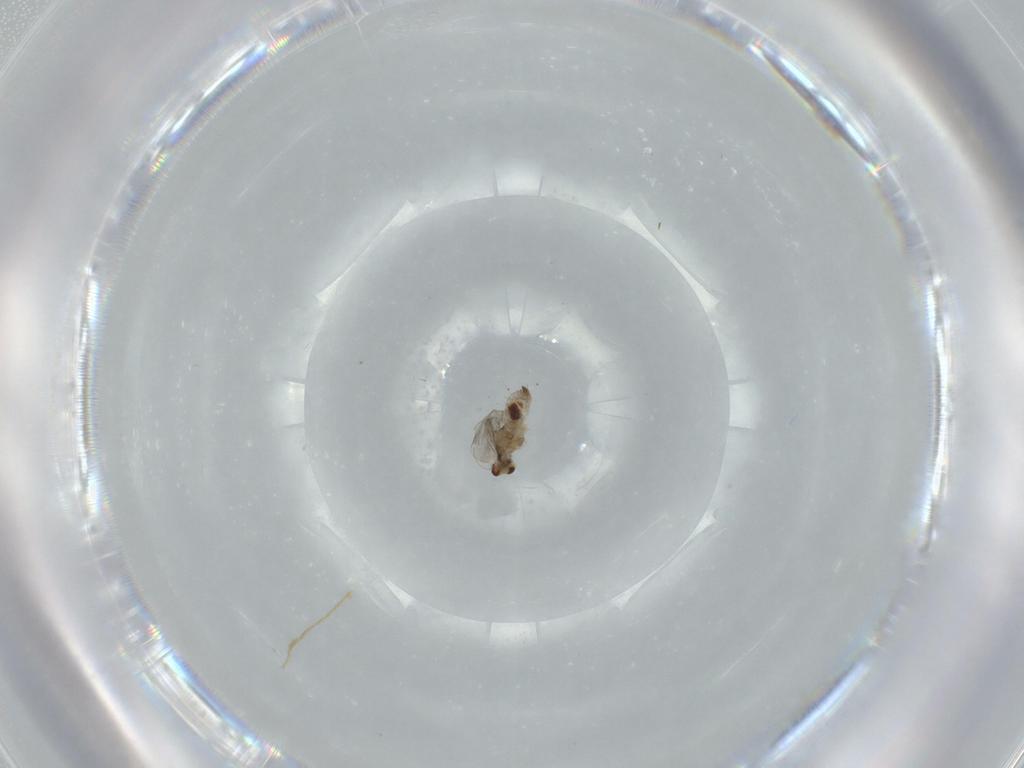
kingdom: Animalia
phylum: Arthropoda
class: Insecta
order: Diptera
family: Cecidomyiidae
